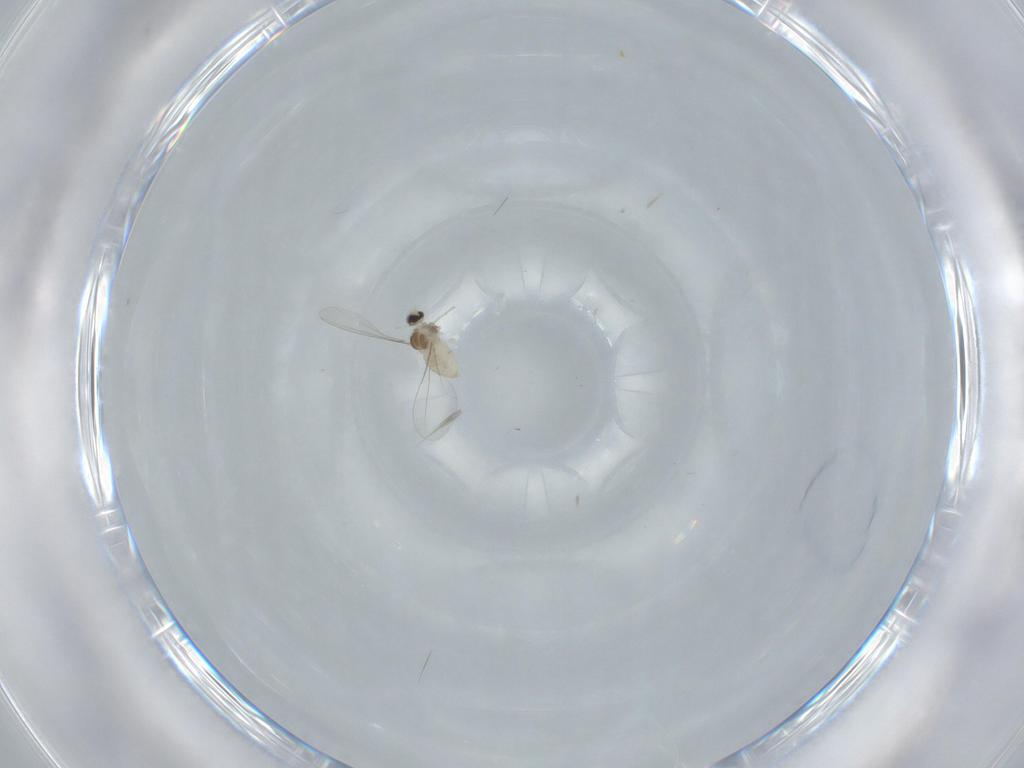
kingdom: Animalia
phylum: Arthropoda
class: Insecta
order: Diptera
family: Cecidomyiidae
